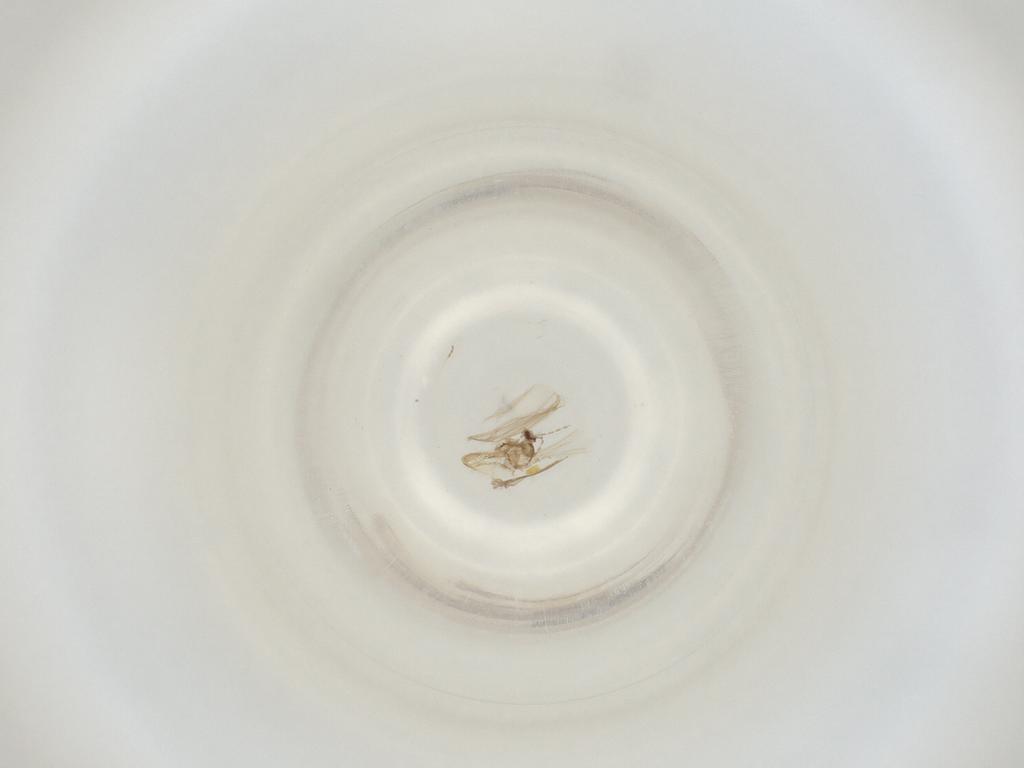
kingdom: Animalia
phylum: Arthropoda
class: Insecta
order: Diptera
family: Cecidomyiidae
